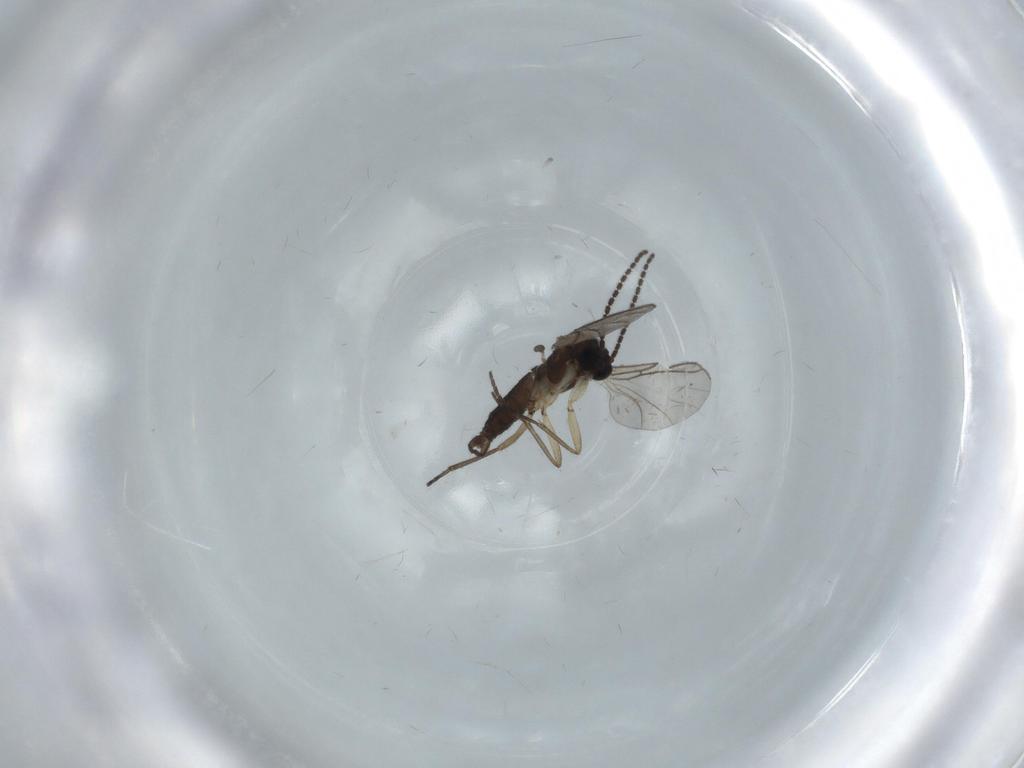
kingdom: Animalia
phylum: Arthropoda
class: Insecta
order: Diptera
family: Sciaridae
